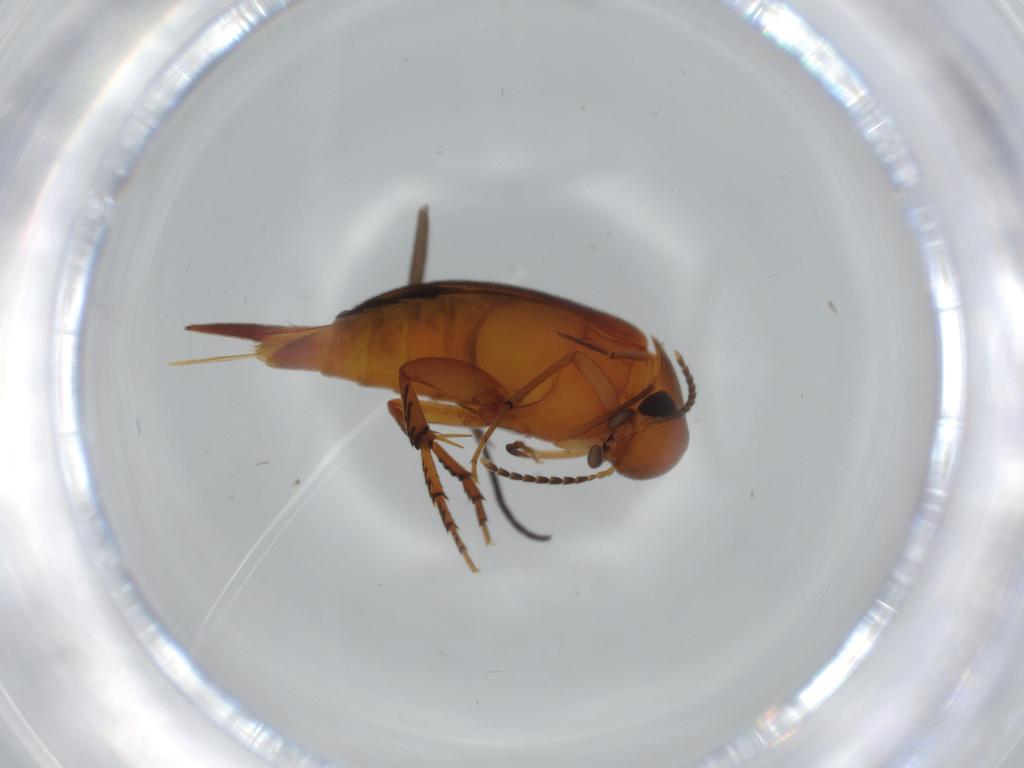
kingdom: Animalia
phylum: Arthropoda
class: Insecta
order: Coleoptera
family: Mordellidae
